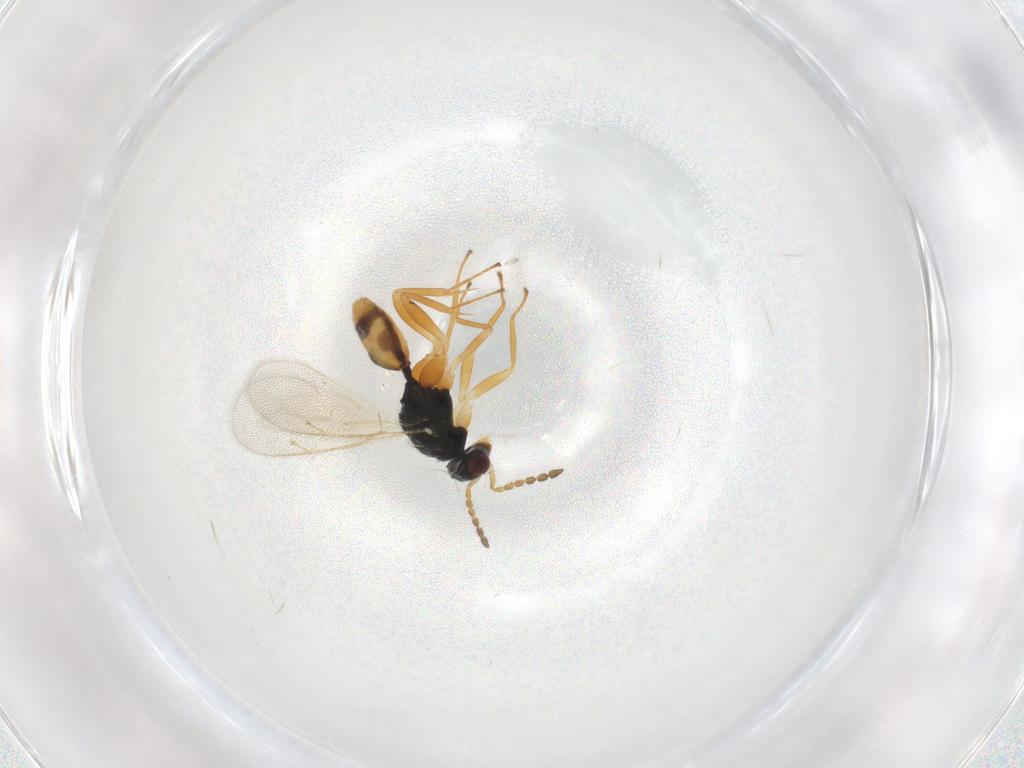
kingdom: Animalia
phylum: Arthropoda
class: Insecta
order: Hymenoptera
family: Eulophidae
